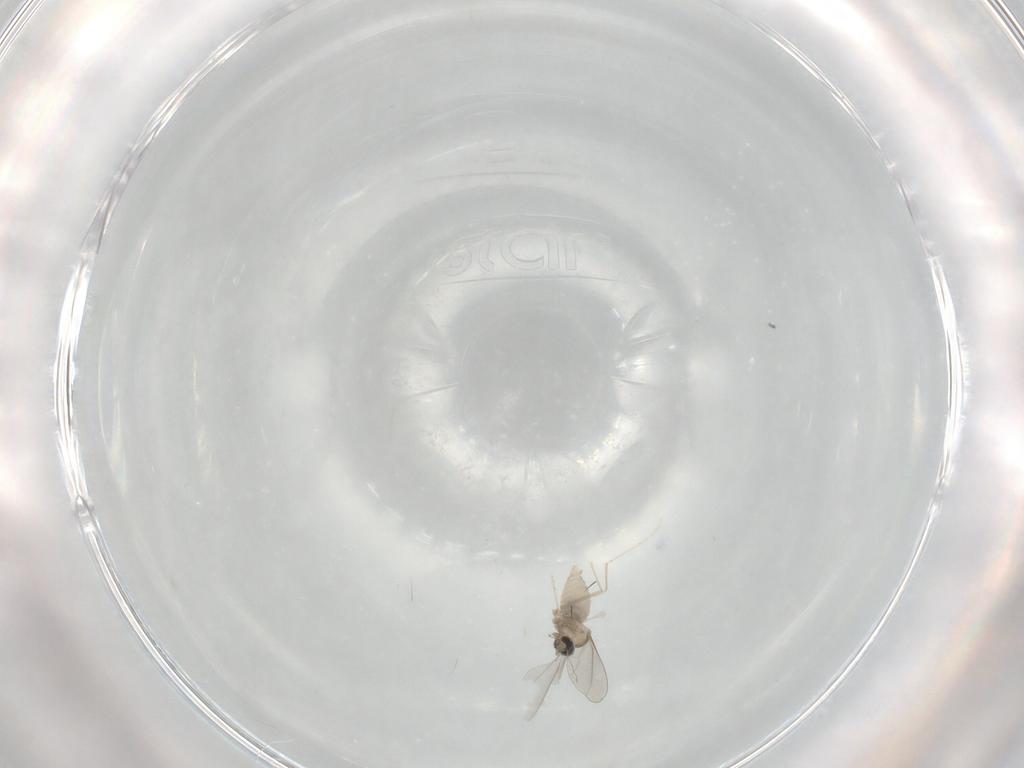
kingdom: Animalia
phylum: Arthropoda
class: Insecta
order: Diptera
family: Cecidomyiidae
